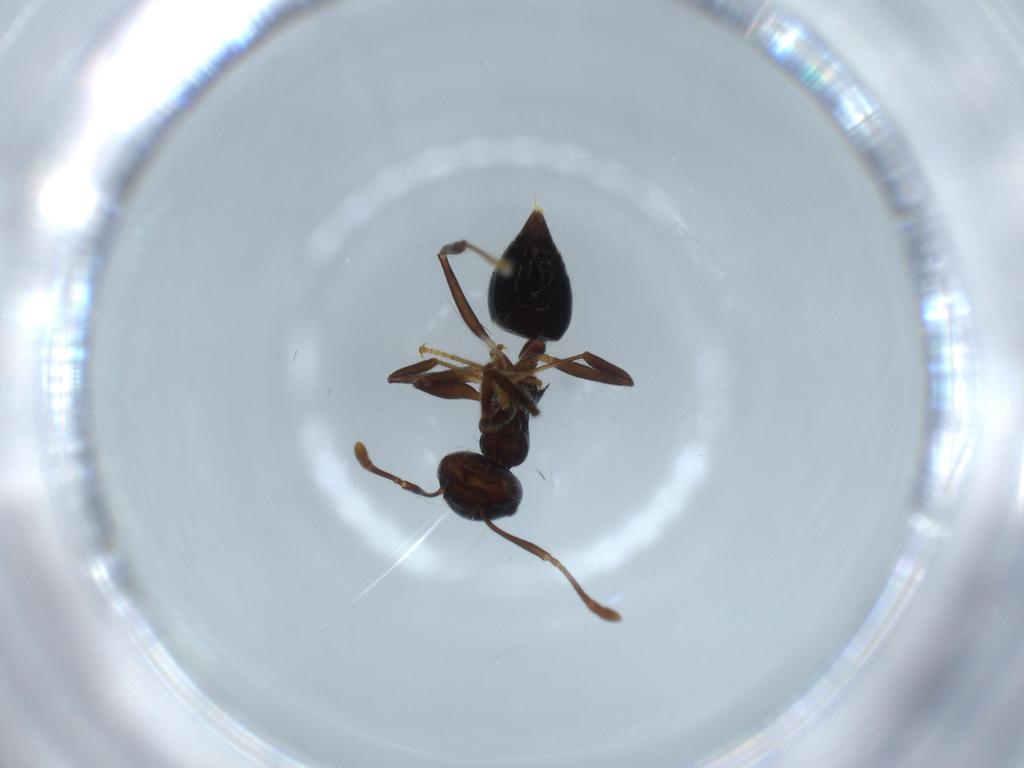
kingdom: Animalia
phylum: Arthropoda
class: Insecta
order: Hymenoptera
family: Formicidae
